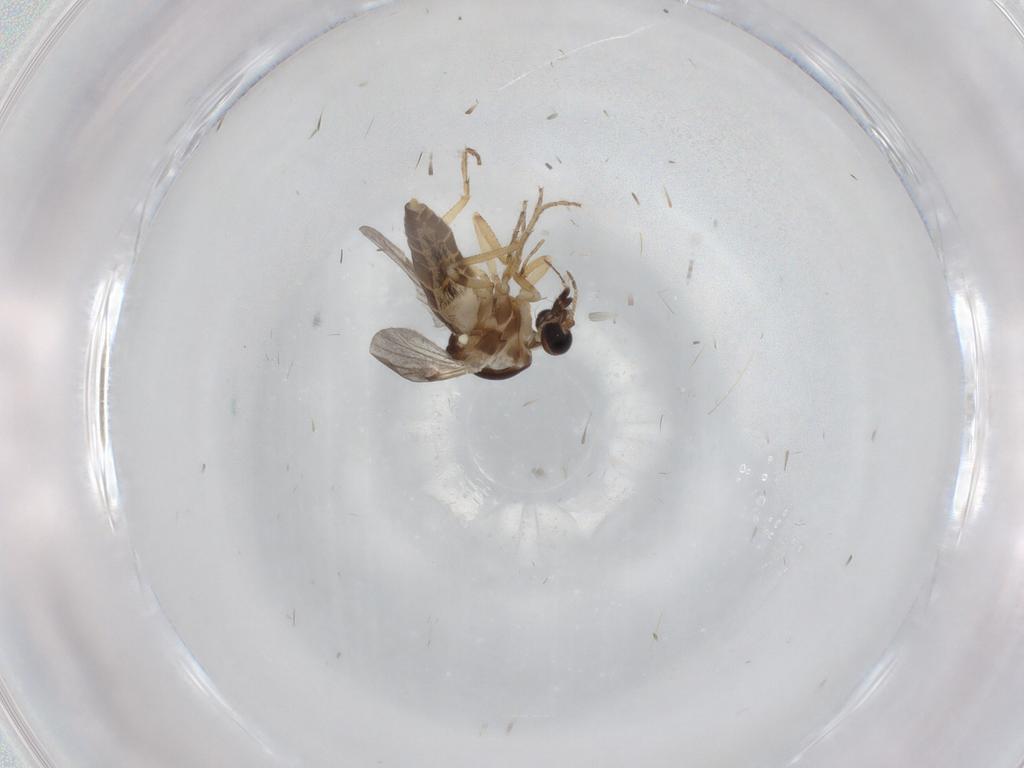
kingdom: Animalia
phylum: Arthropoda
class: Insecta
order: Diptera
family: Ceratopogonidae
